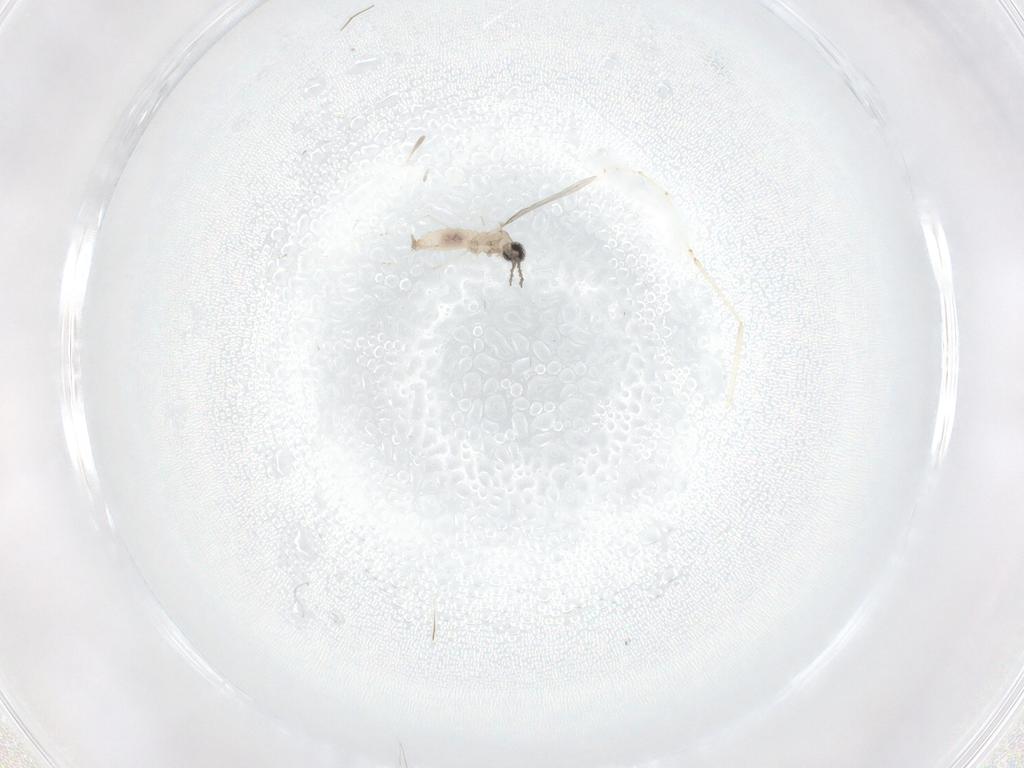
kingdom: Animalia
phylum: Arthropoda
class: Insecta
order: Diptera
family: Cecidomyiidae
